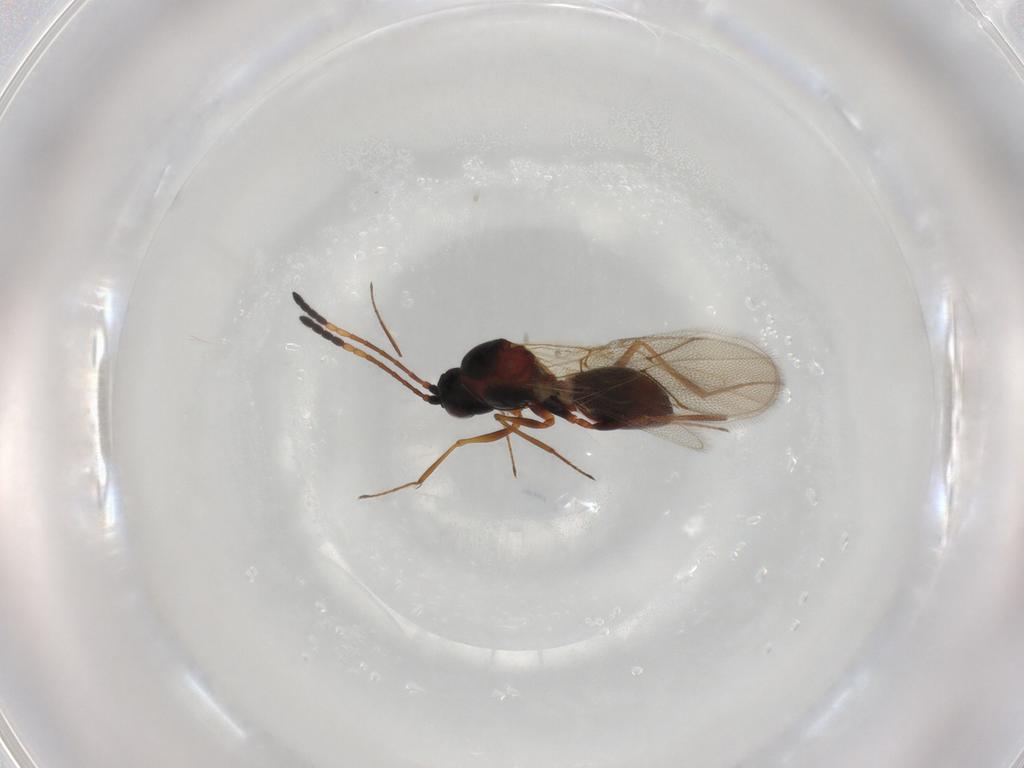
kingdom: Animalia
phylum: Arthropoda
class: Insecta
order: Hymenoptera
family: Figitidae
